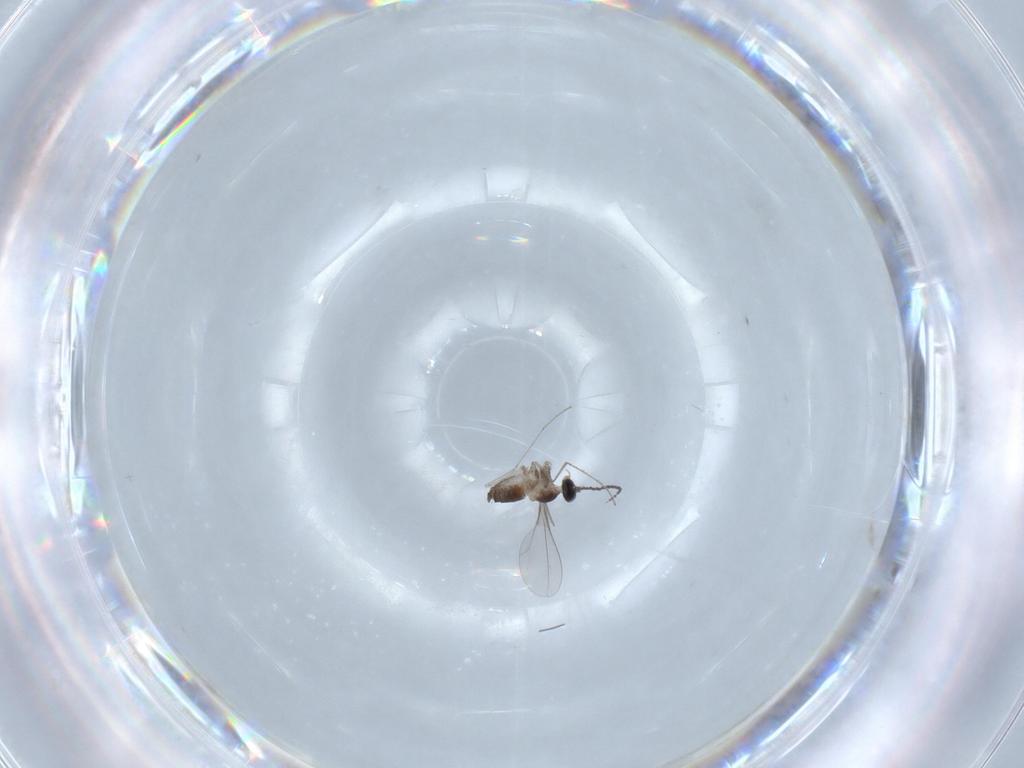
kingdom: Animalia
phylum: Arthropoda
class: Insecta
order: Diptera
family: Cecidomyiidae
